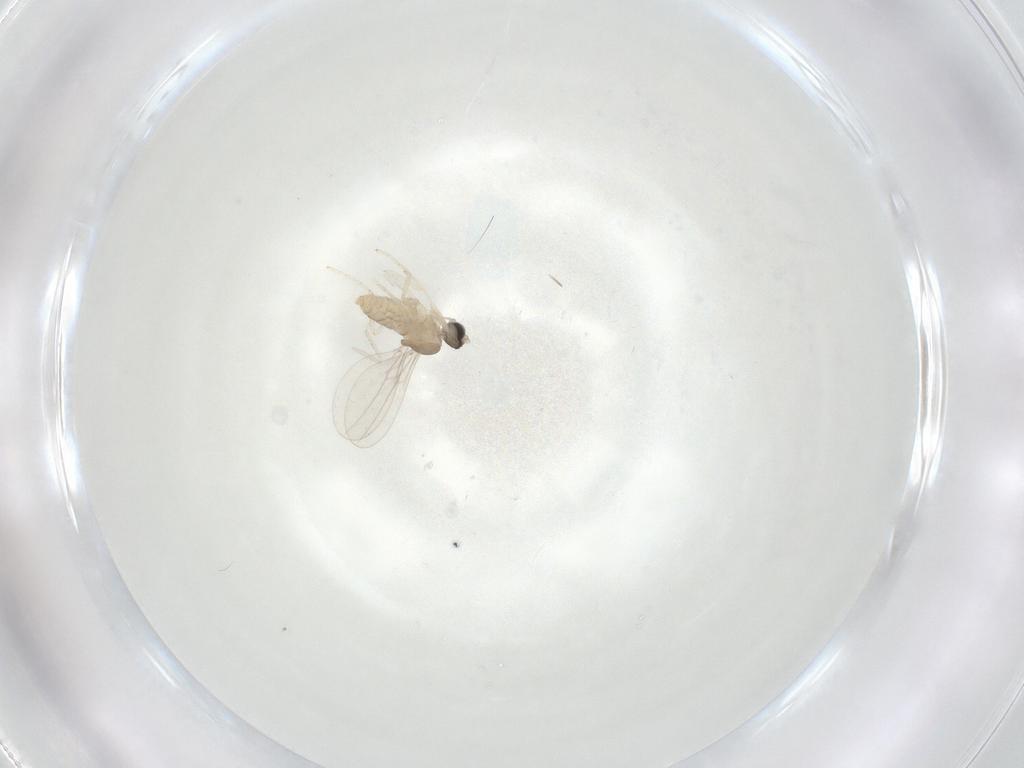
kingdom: Animalia
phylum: Arthropoda
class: Insecta
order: Diptera
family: Cecidomyiidae
